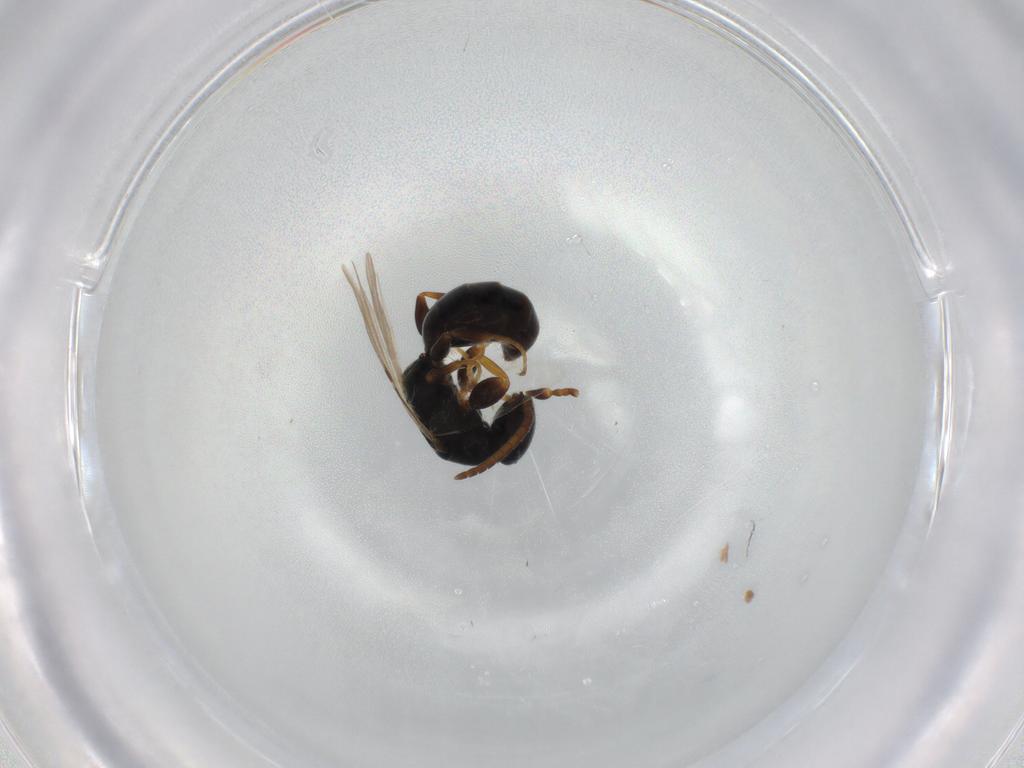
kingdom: Animalia
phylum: Arthropoda
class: Insecta
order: Hymenoptera
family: Bethylidae
